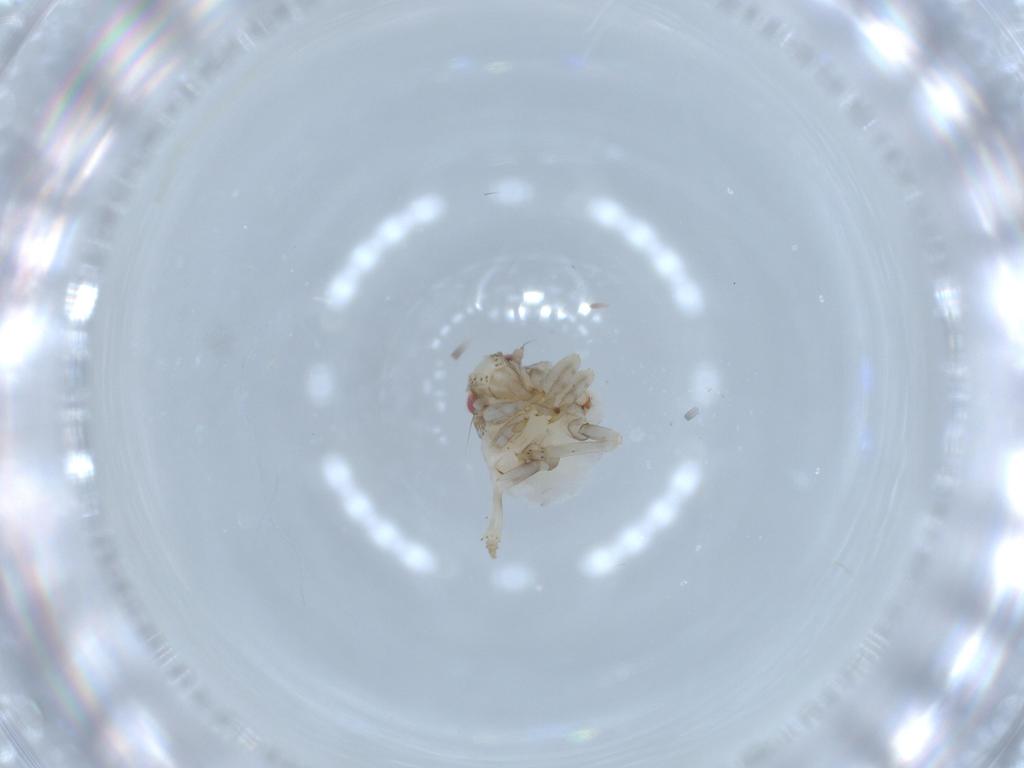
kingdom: Animalia
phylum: Arthropoda
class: Insecta
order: Hemiptera
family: Acanaloniidae
